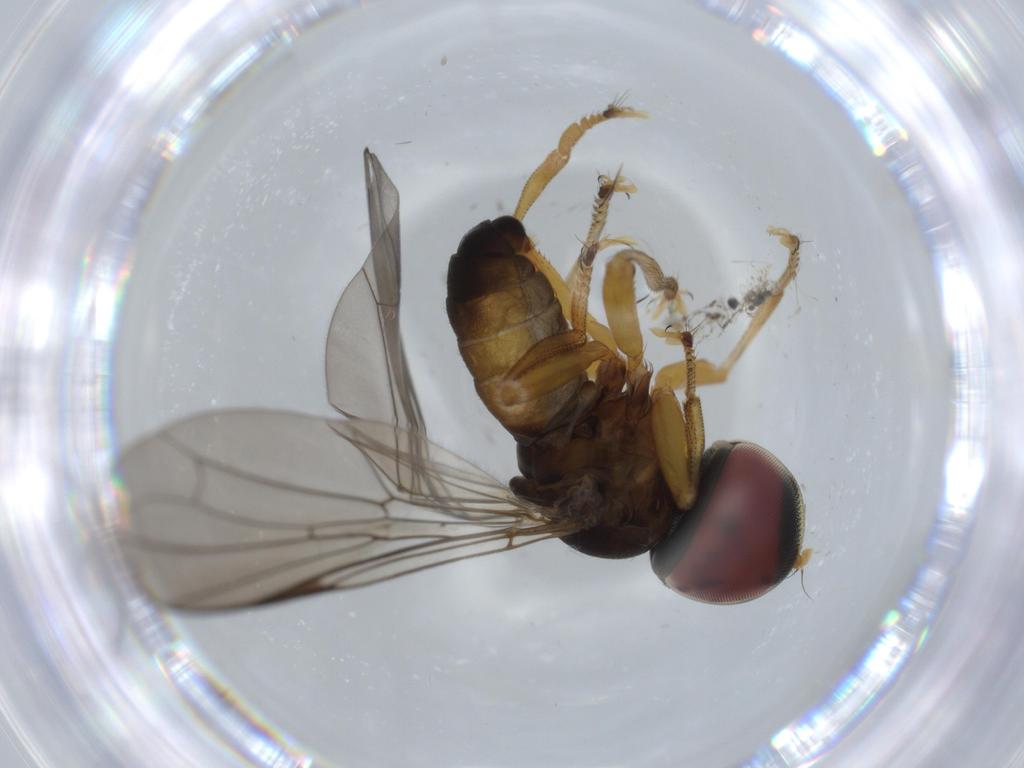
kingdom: Animalia
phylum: Arthropoda
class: Insecta
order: Diptera
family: Pipunculidae
